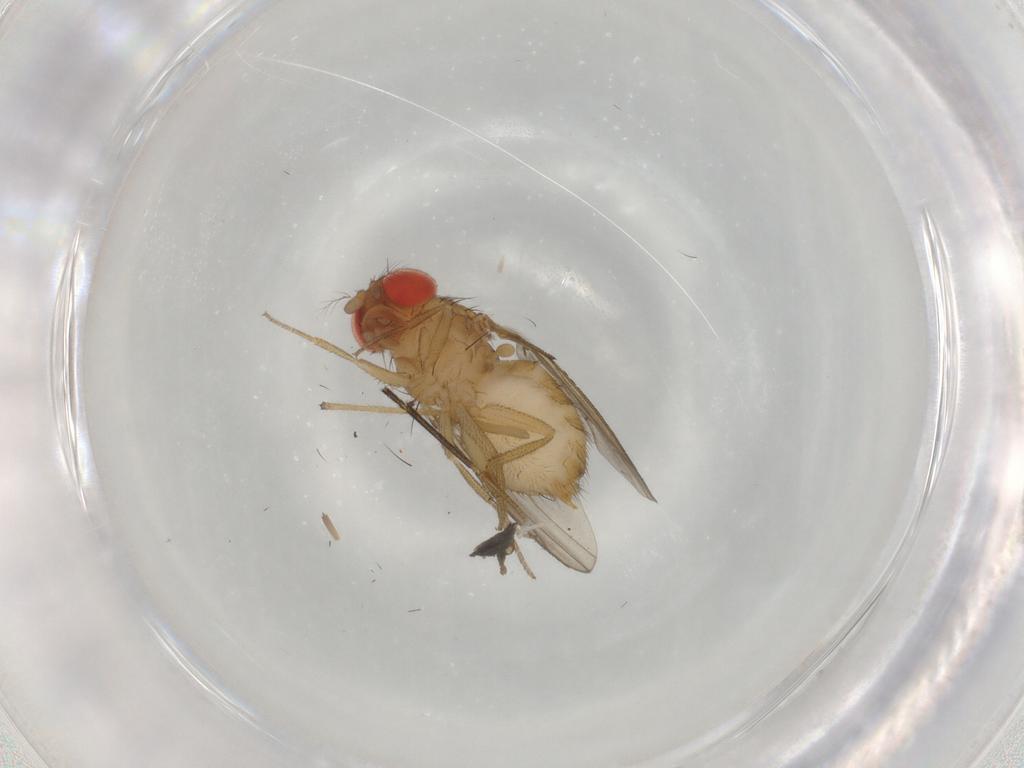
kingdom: Animalia
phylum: Arthropoda
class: Insecta
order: Diptera
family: Drosophilidae
